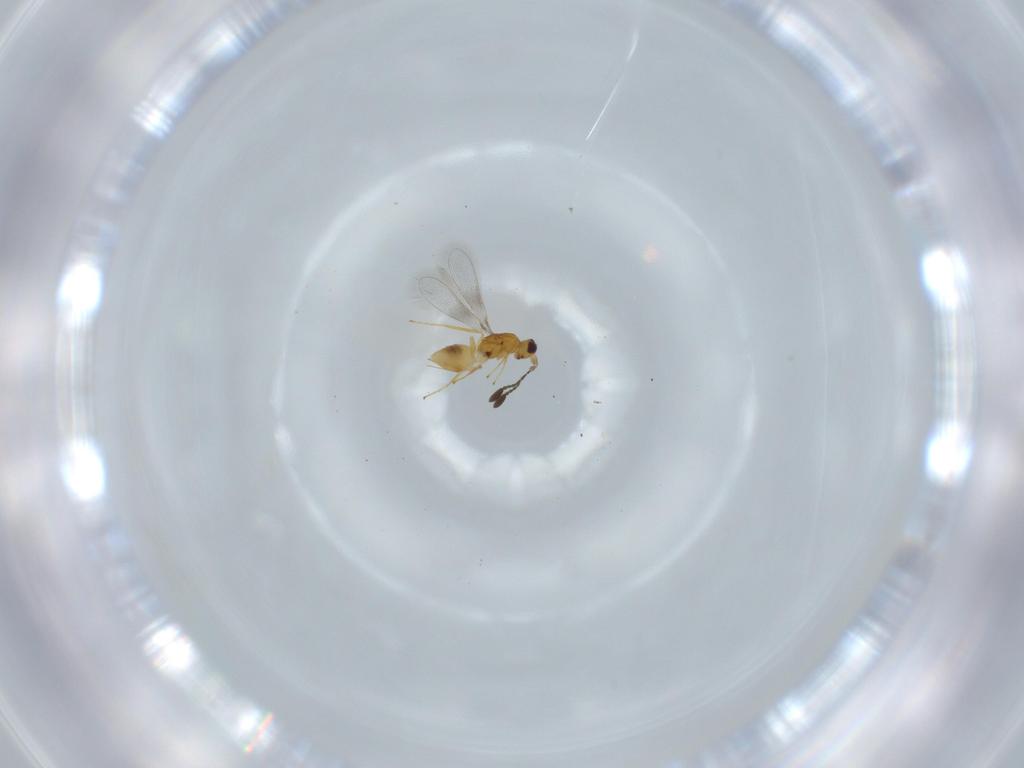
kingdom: Animalia
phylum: Arthropoda
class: Insecta
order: Hymenoptera
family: Mymaridae
